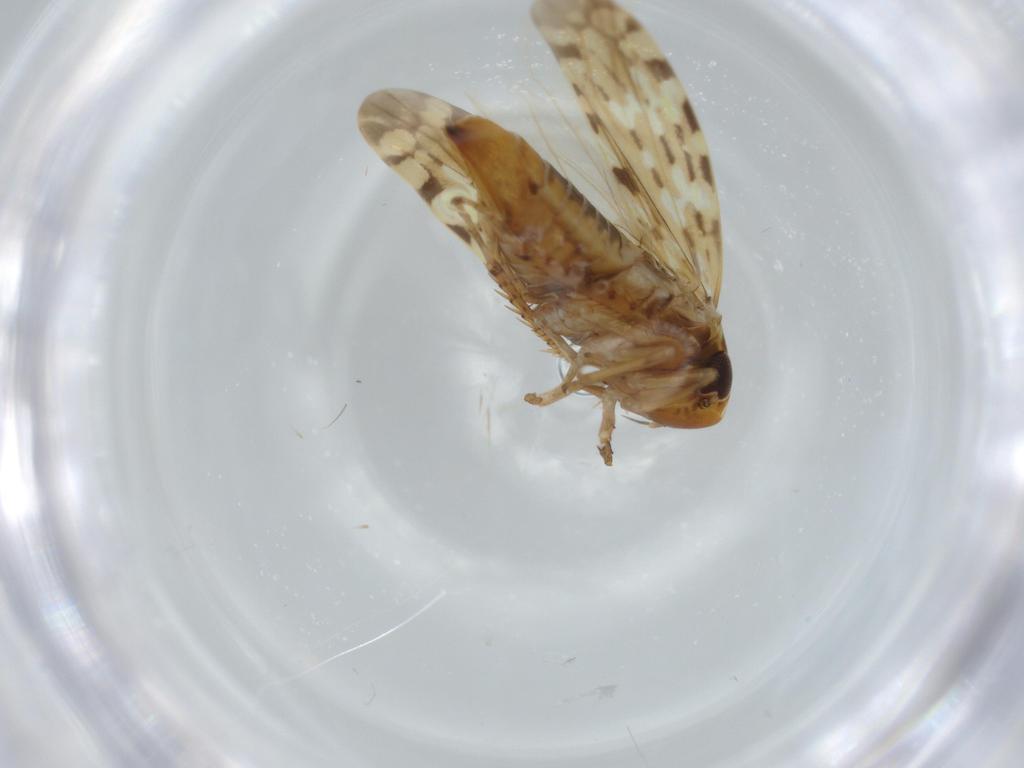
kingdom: Animalia
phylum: Arthropoda
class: Insecta
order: Hemiptera
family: Cicadellidae
